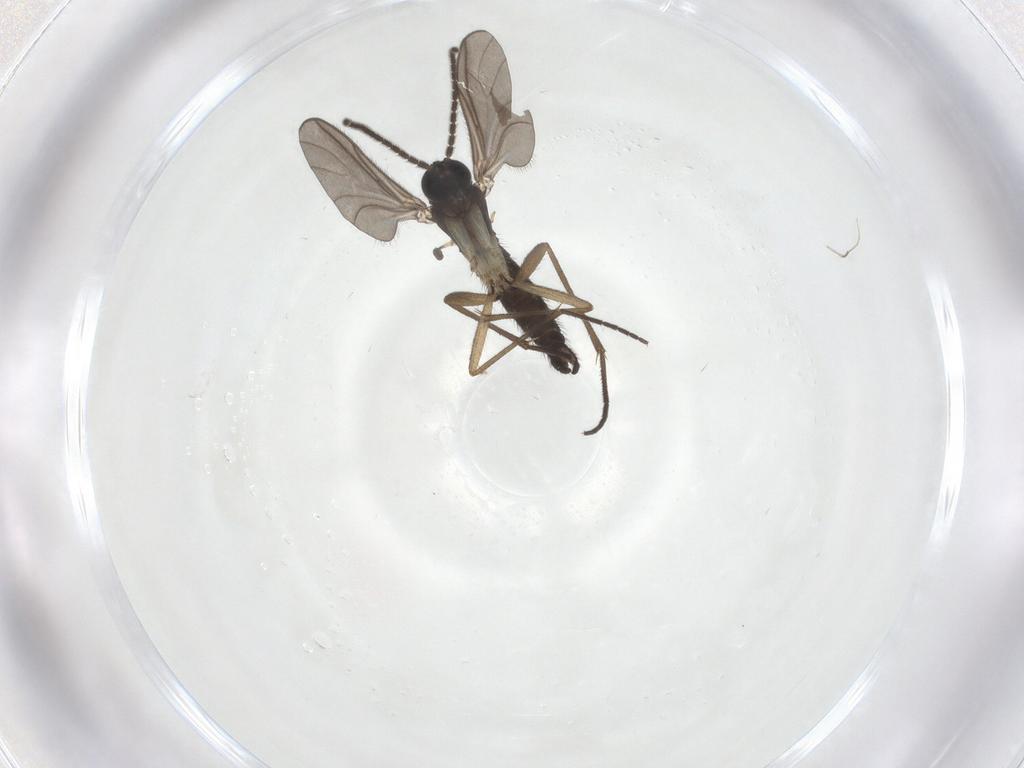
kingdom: Animalia
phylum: Arthropoda
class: Insecta
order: Diptera
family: Sciaridae
